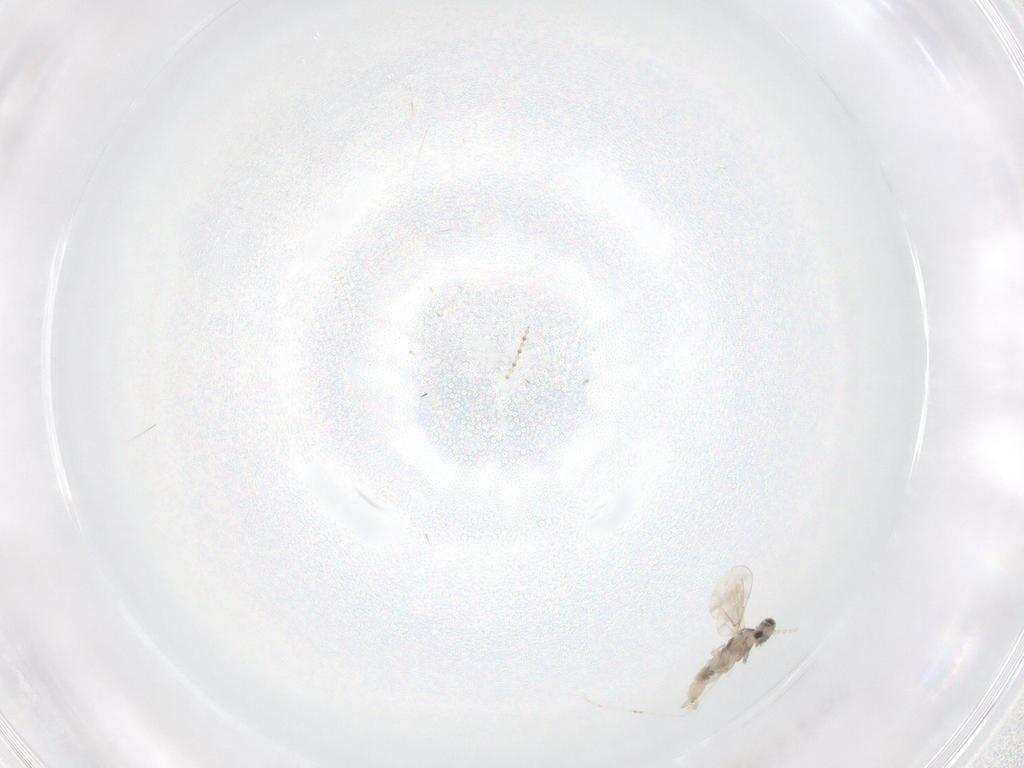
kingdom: Animalia
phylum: Arthropoda
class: Insecta
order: Diptera
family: Cecidomyiidae
